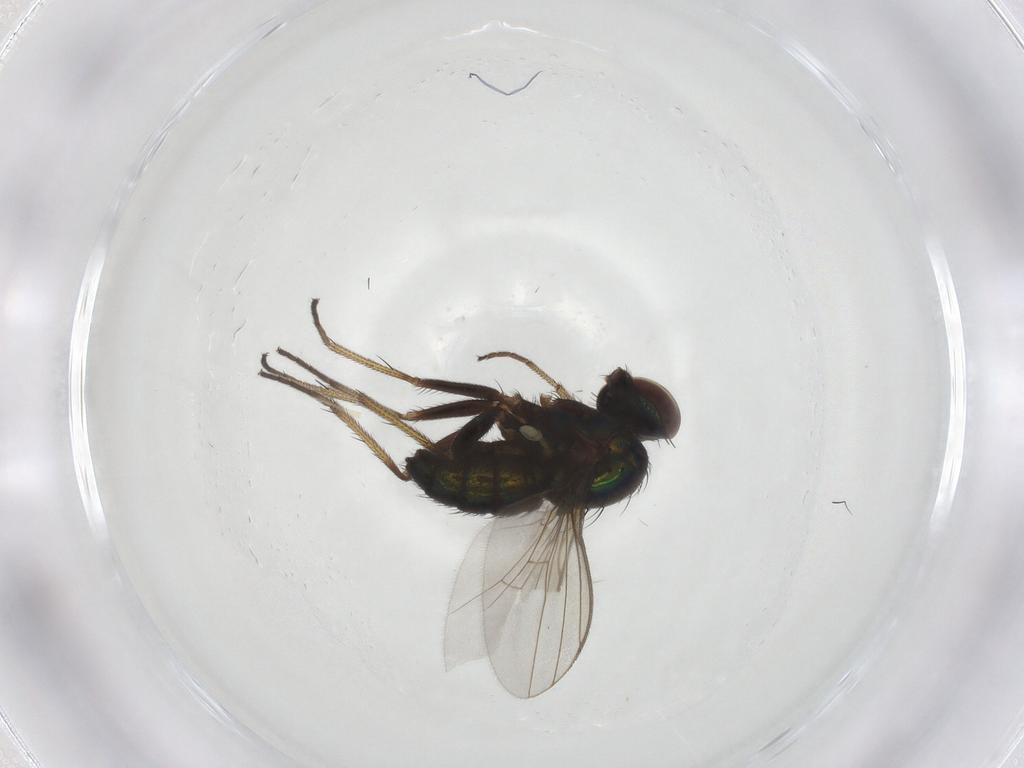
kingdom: Animalia
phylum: Arthropoda
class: Insecta
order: Diptera
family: Dolichopodidae
